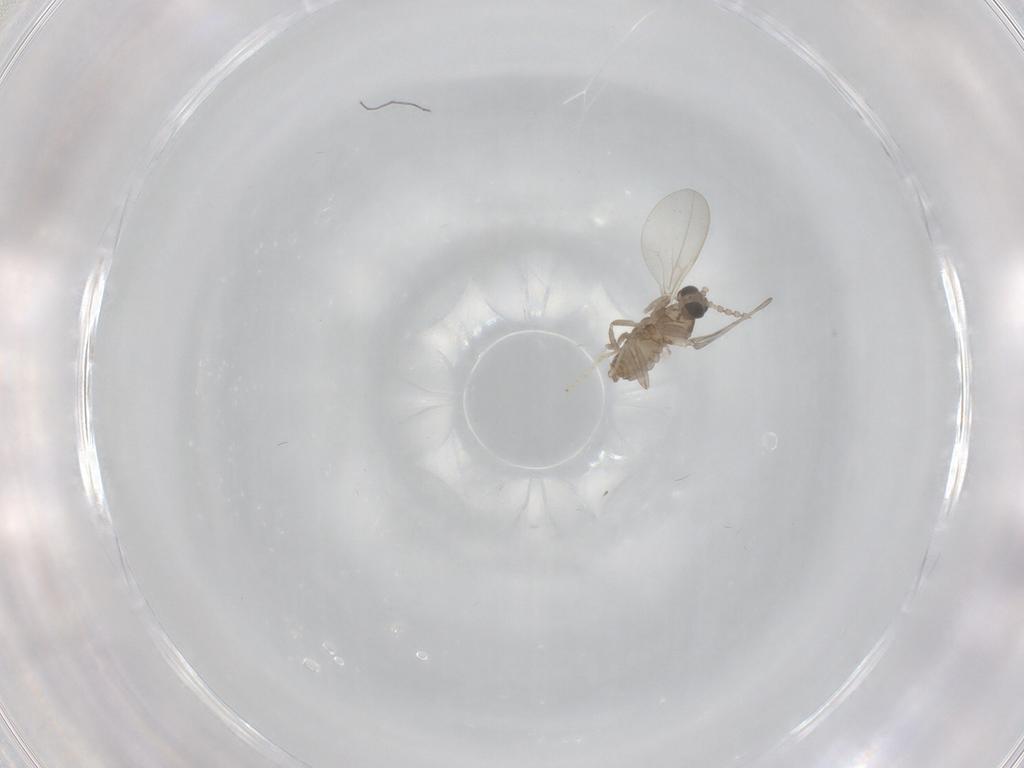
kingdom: Animalia
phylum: Arthropoda
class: Insecta
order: Diptera
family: Cecidomyiidae
